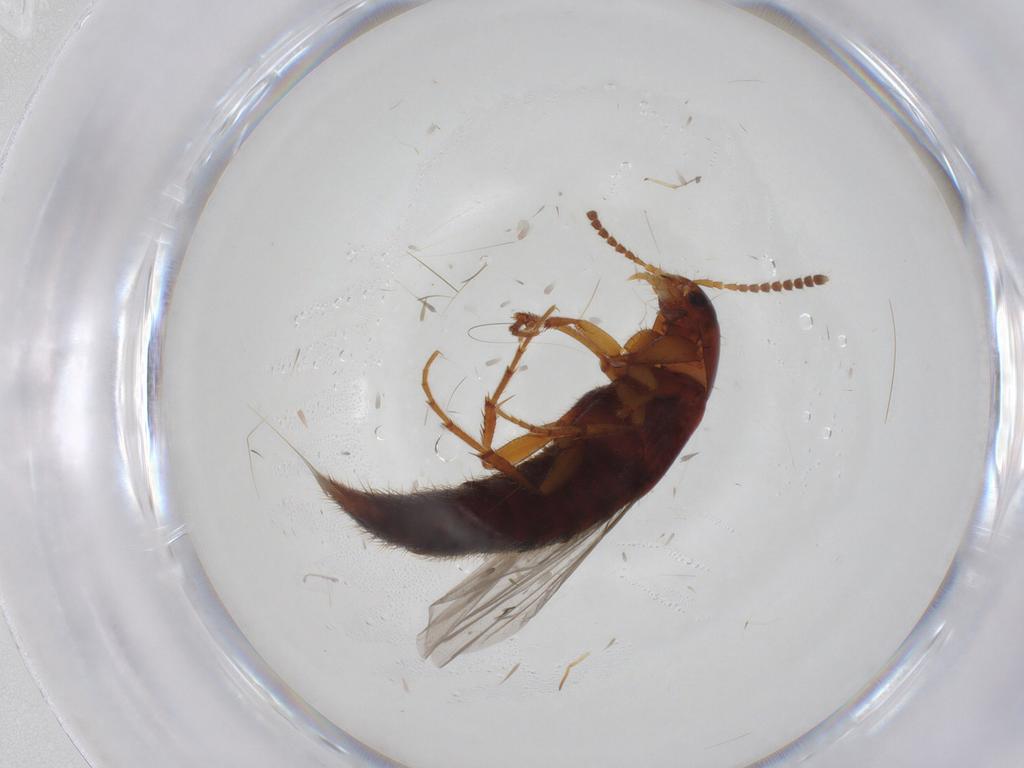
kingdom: Animalia
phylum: Arthropoda
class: Insecta
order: Coleoptera
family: Staphylinidae
